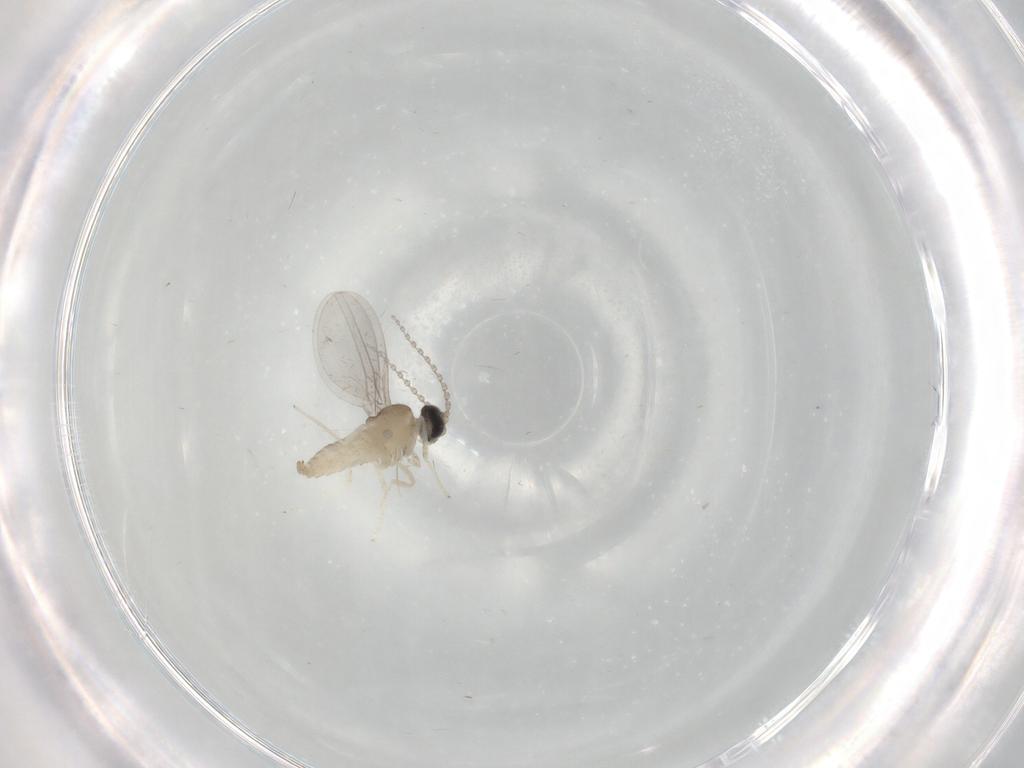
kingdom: Animalia
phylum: Arthropoda
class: Insecta
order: Diptera
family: Cecidomyiidae
